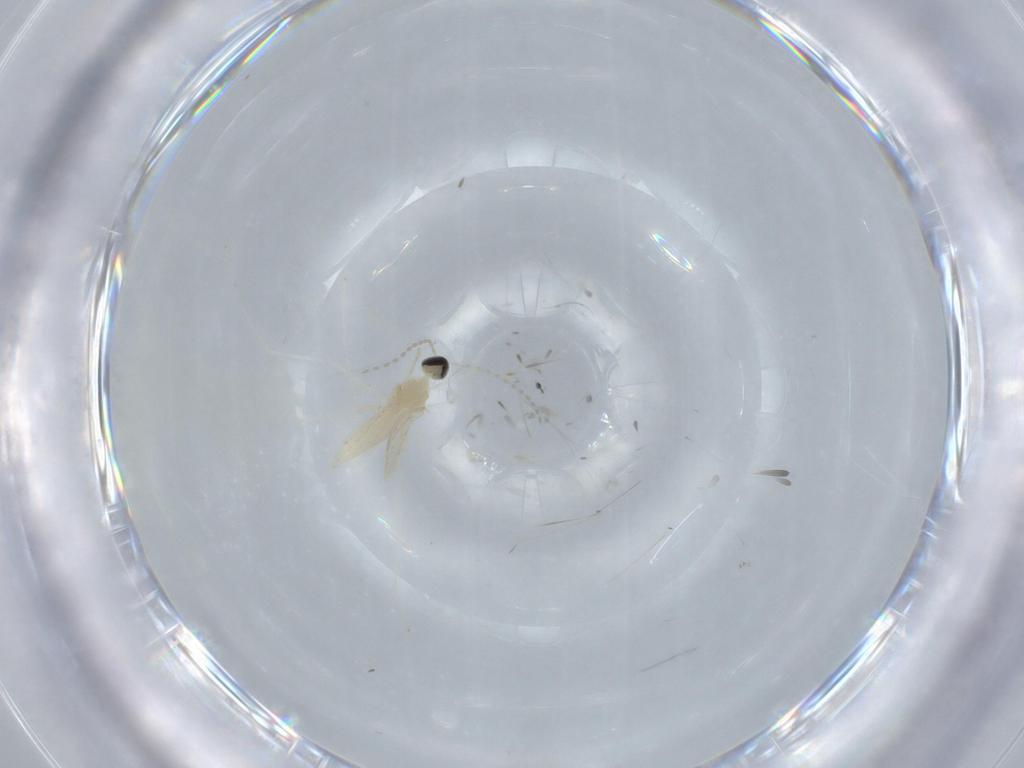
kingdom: Animalia
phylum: Arthropoda
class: Insecta
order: Diptera
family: Cecidomyiidae
